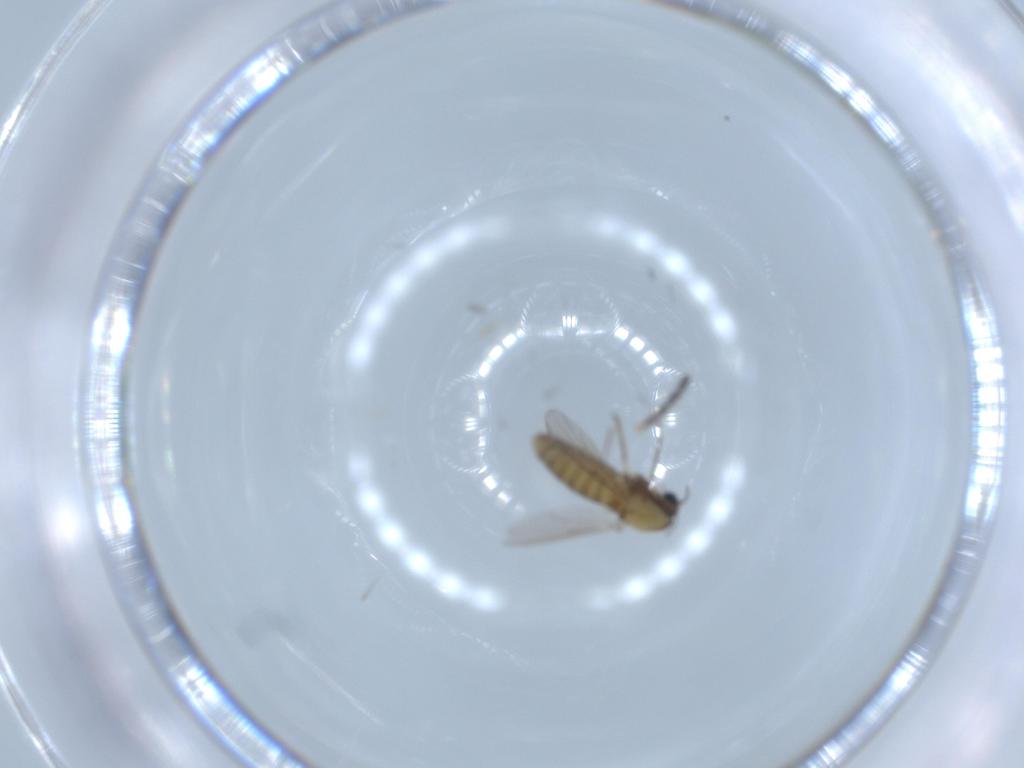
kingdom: Animalia
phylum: Arthropoda
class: Insecta
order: Diptera
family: Chironomidae
